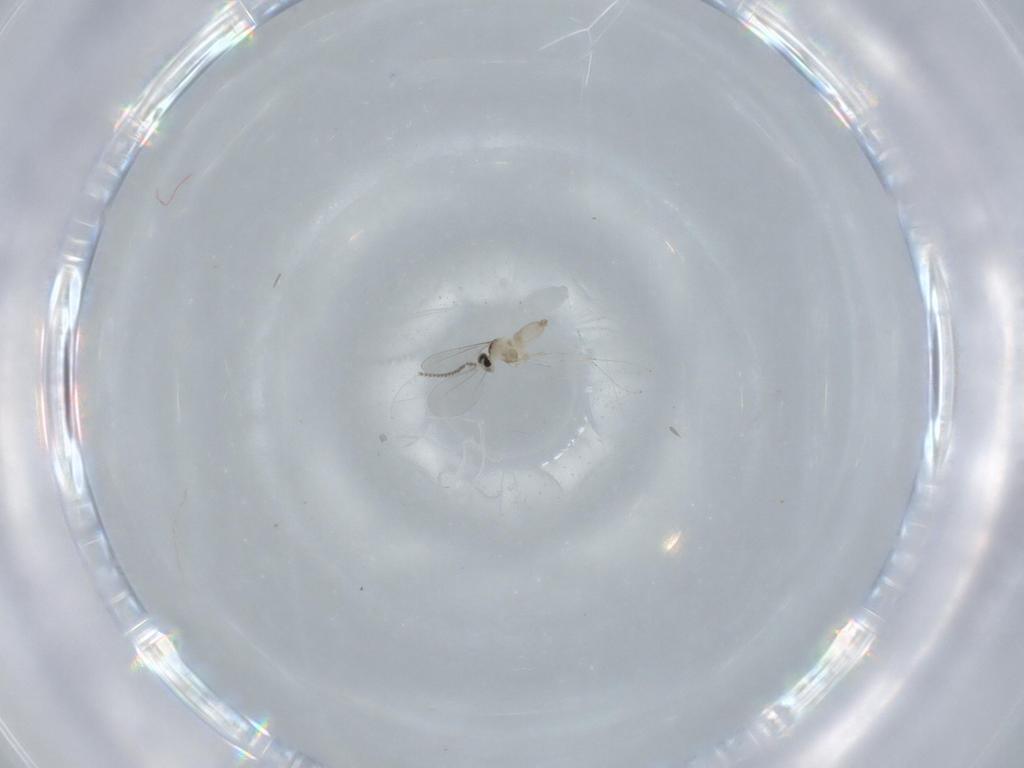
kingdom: Animalia
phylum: Arthropoda
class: Insecta
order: Diptera
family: Cecidomyiidae
